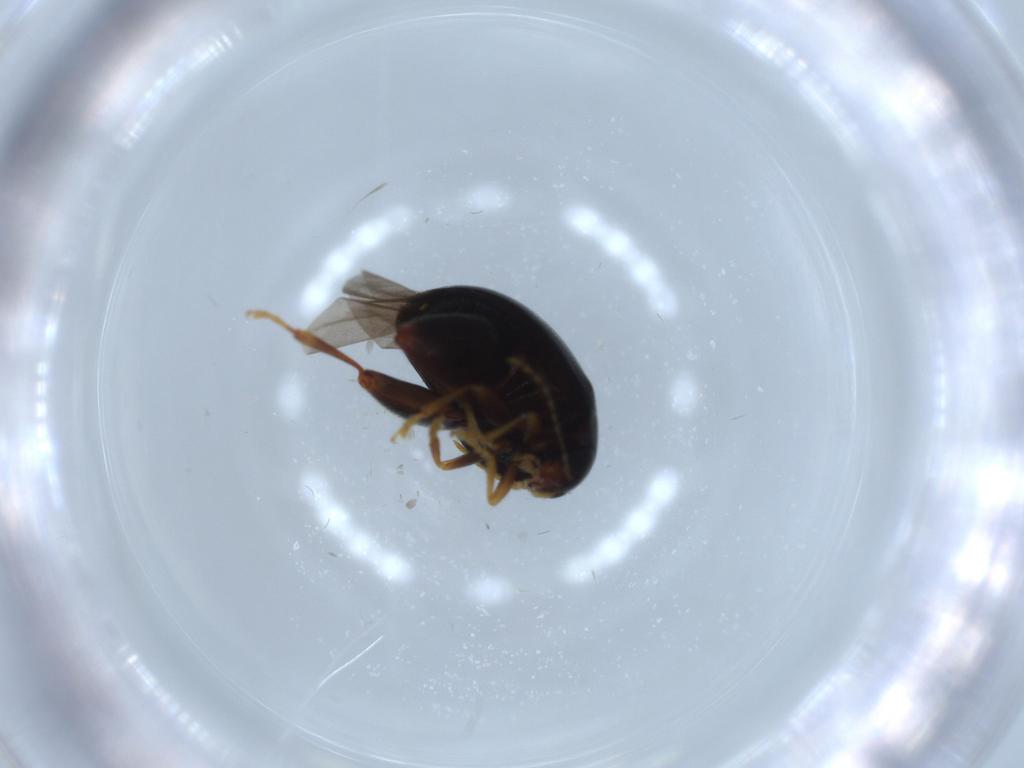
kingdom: Animalia
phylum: Arthropoda
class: Insecta
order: Coleoptera
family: Chrysomelidae
